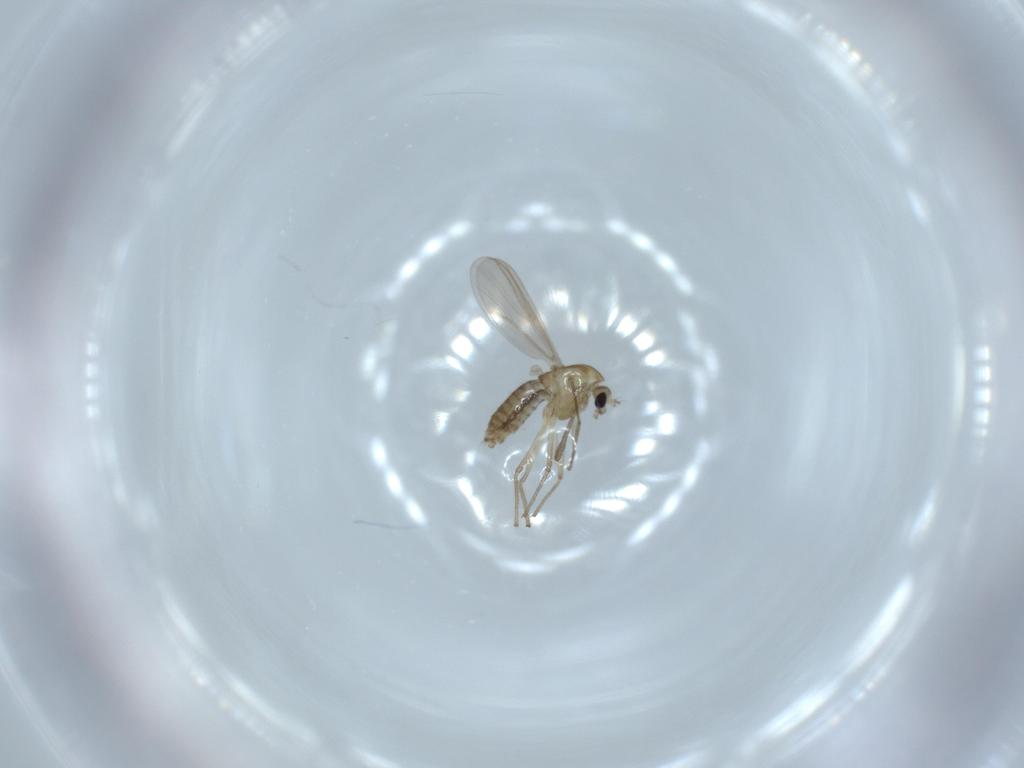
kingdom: Animalia
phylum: Arthropoda
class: Insecta
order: Diptera
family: Chironomidae
